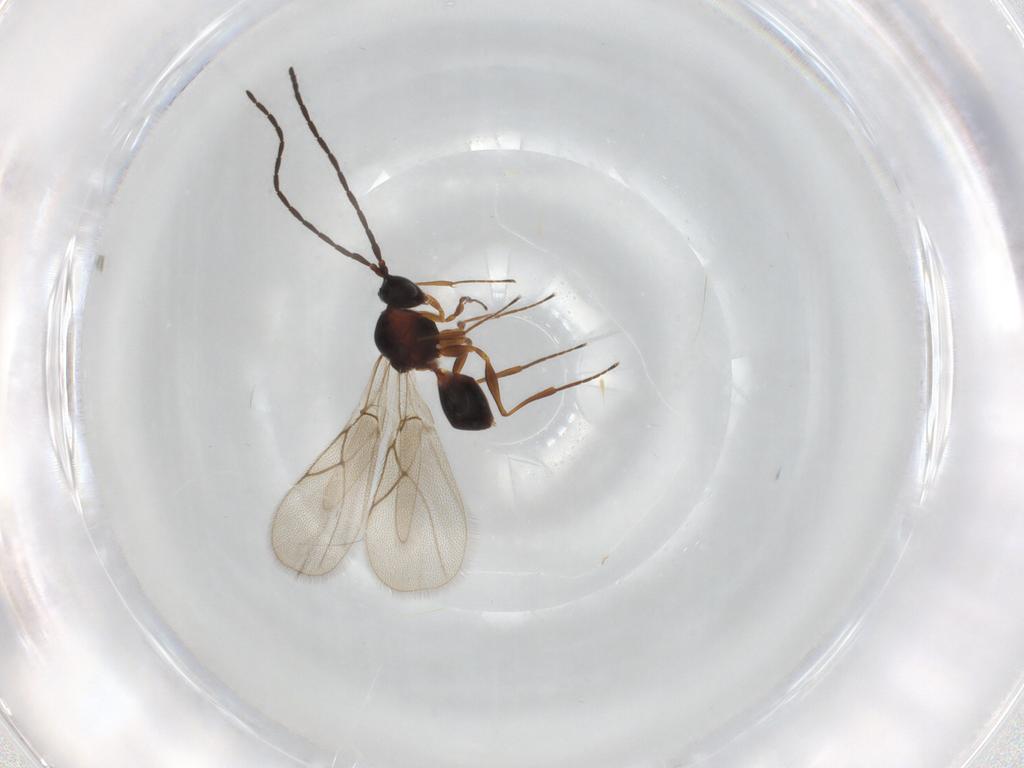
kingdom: Animalia
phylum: Arthropoda
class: Insecta
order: Hymenoptera
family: Figitidae
